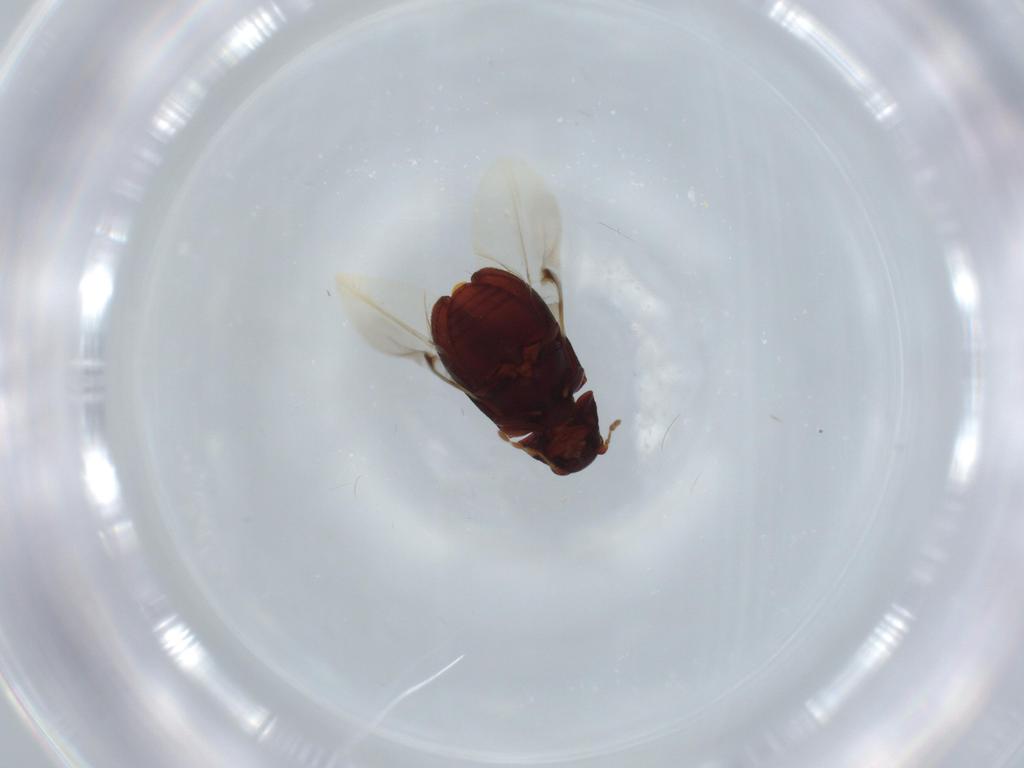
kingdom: Animalia
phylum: Arthropoda
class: Insecta
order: Coleoptera
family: Ptinidae
